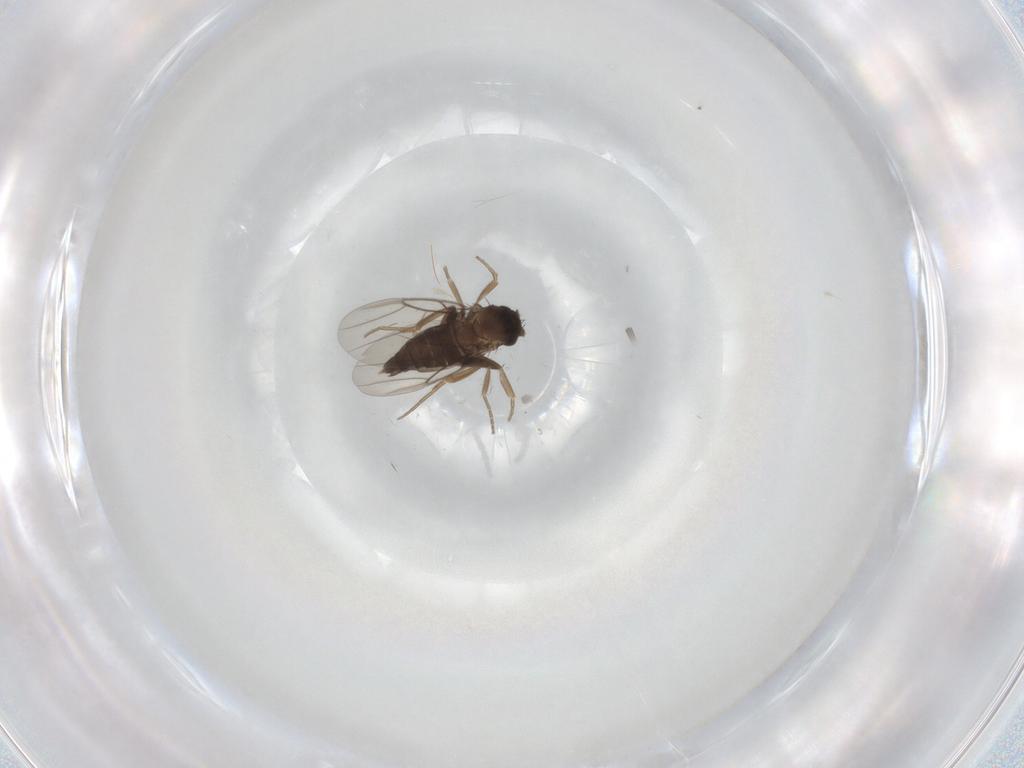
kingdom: Animalia
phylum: Arthropoda
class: Insecta
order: Diptera
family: Phoridae
